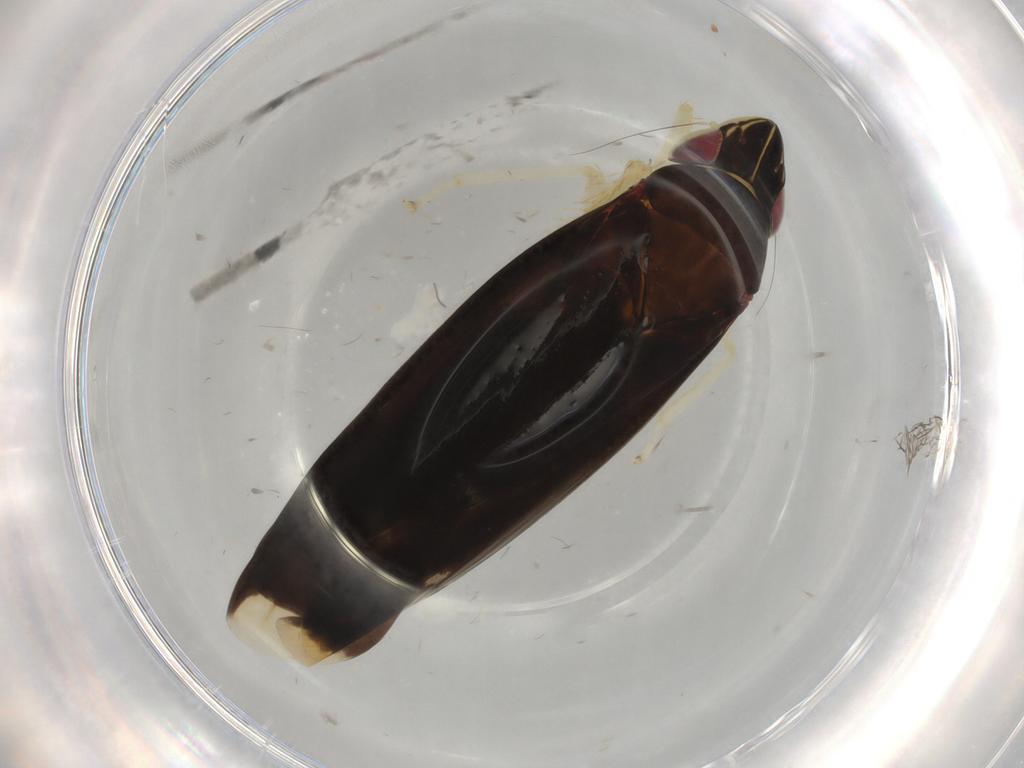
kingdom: Animalia
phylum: Arthropoda
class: Insecta
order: Hemiptera
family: Cicadellidae
